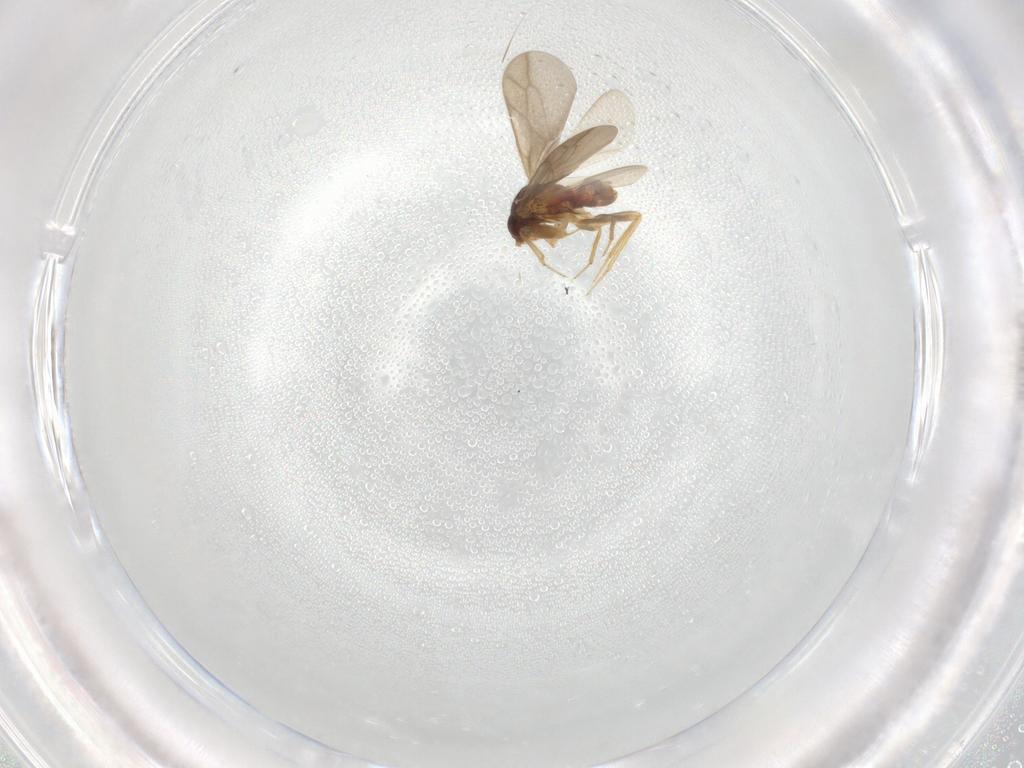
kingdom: Animalia
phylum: Arthropoda
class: Insecta
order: Hemiptera
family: Ceratocombidae
